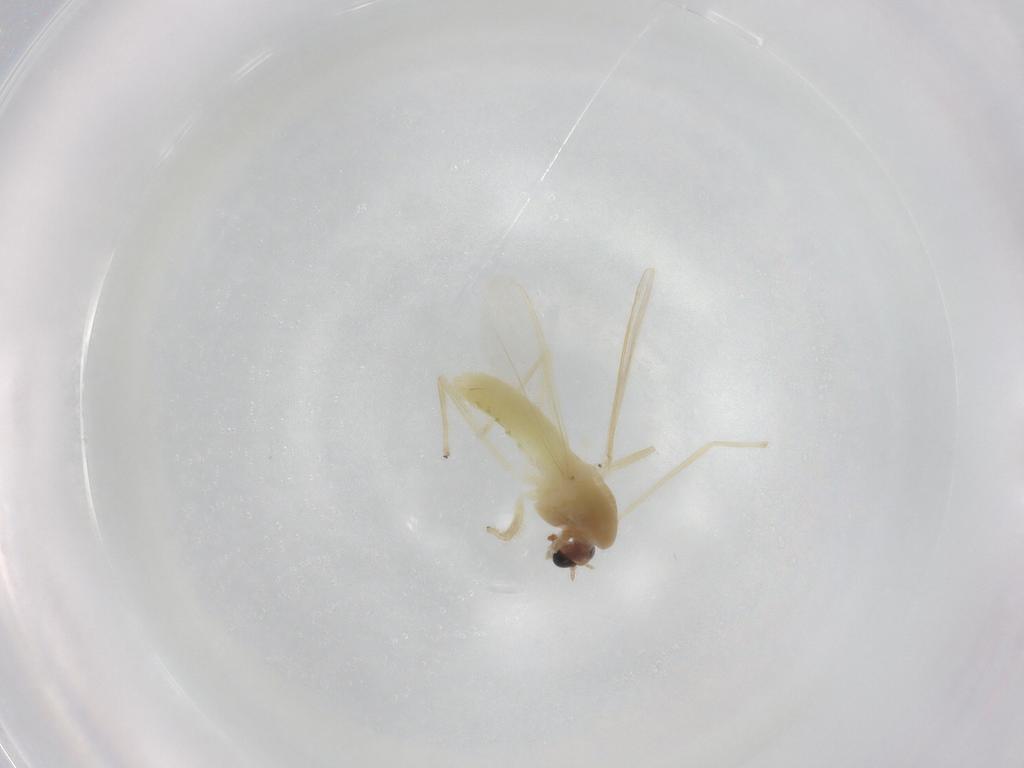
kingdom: Animalia
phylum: Arthropoda
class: Insecta
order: Diptera
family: Chironomidae
